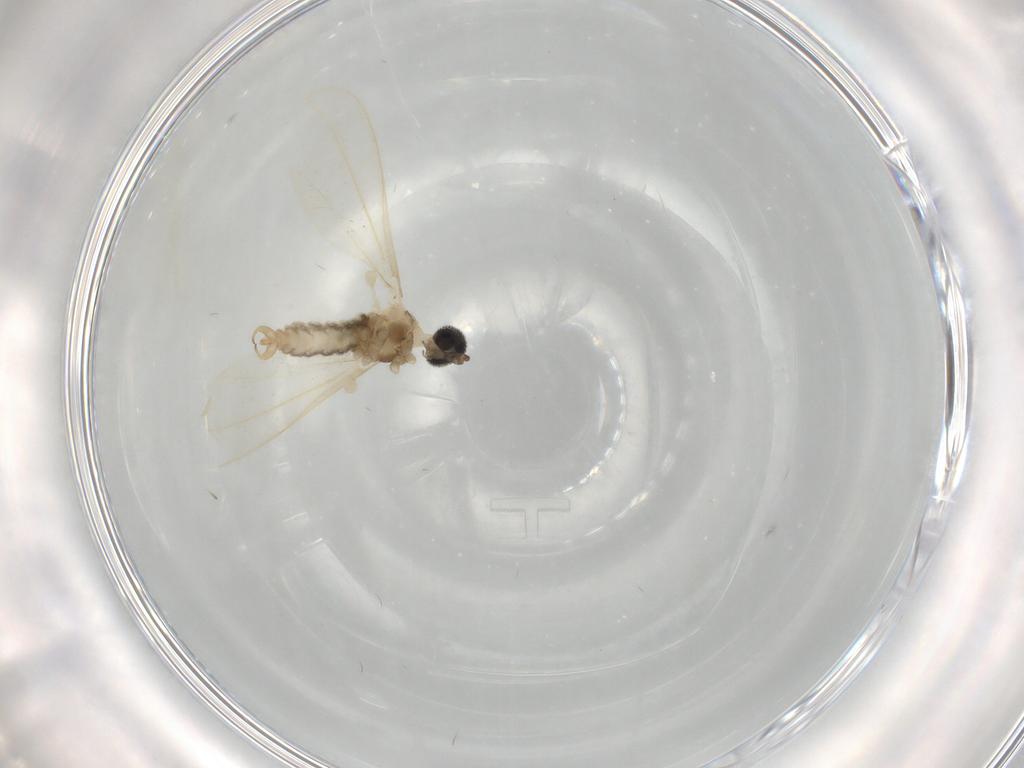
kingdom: Animalia
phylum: Arthropoda
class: Insecta
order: Diptera
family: Cecidomyiidae
